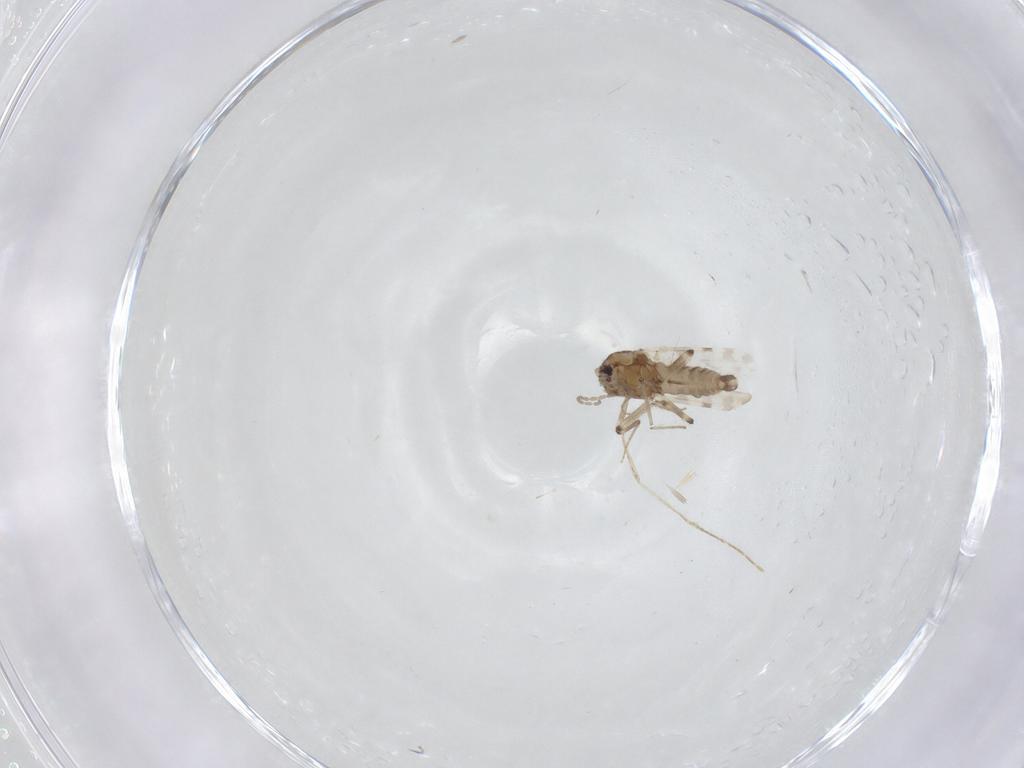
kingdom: Animalia
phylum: Arthropoda
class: Insecta
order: Diptera
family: Cecidomyiidae
